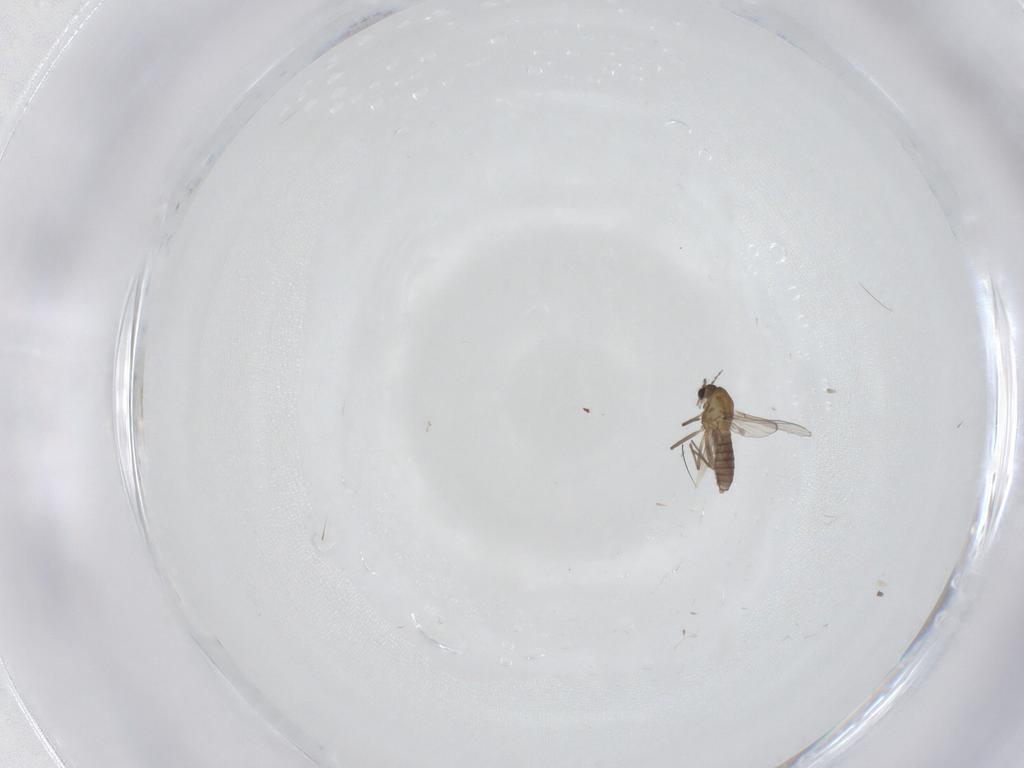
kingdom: Animalia
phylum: Arthropoda
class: Insecta
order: Diptera
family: Chironomidae
